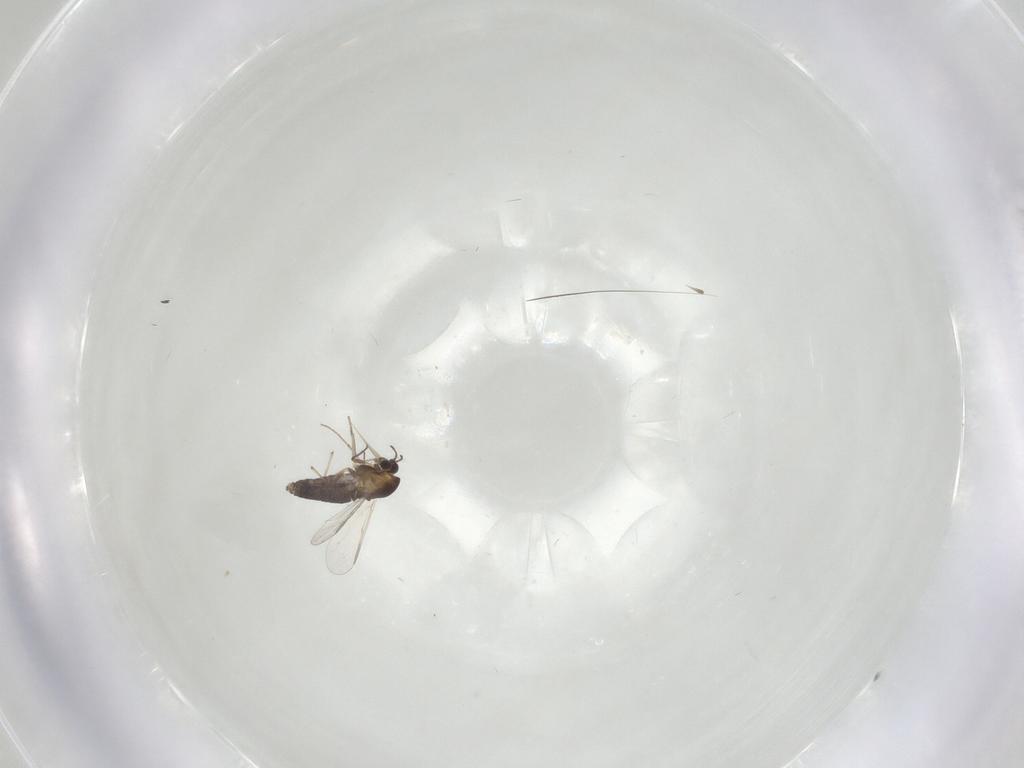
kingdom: Animalia
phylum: Arthropoda
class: Insecta
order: Diptera
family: Chironomidae
